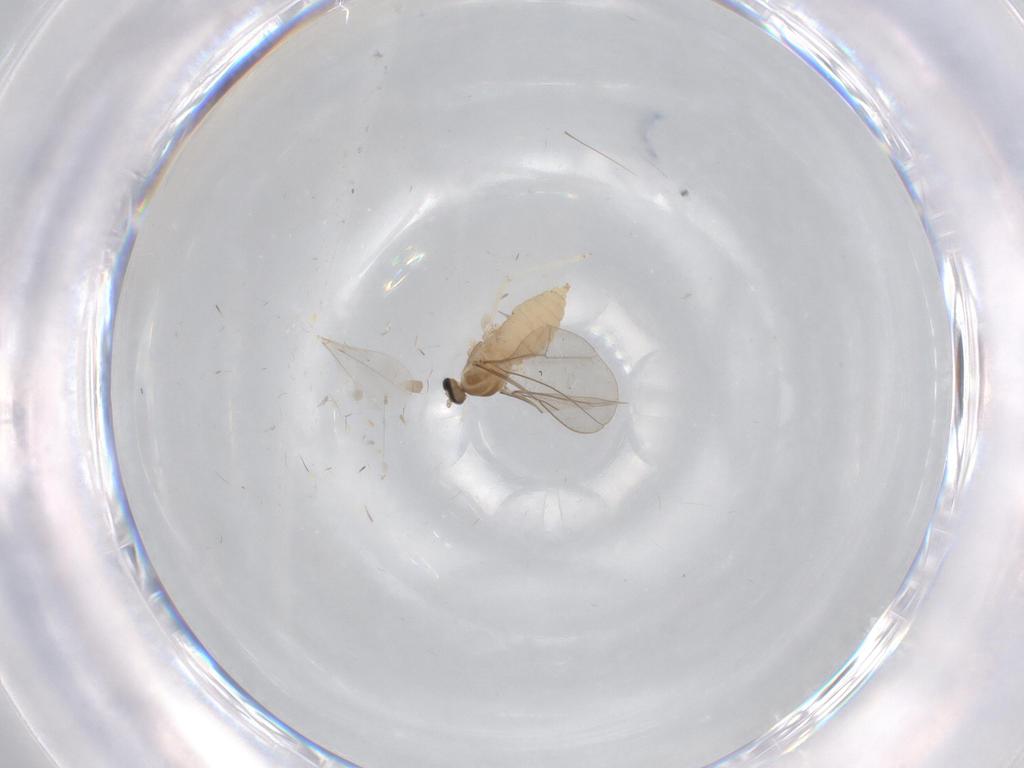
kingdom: Animalia
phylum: Arthropoda
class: Insecta
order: Diptera
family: Cecidomyiidae
